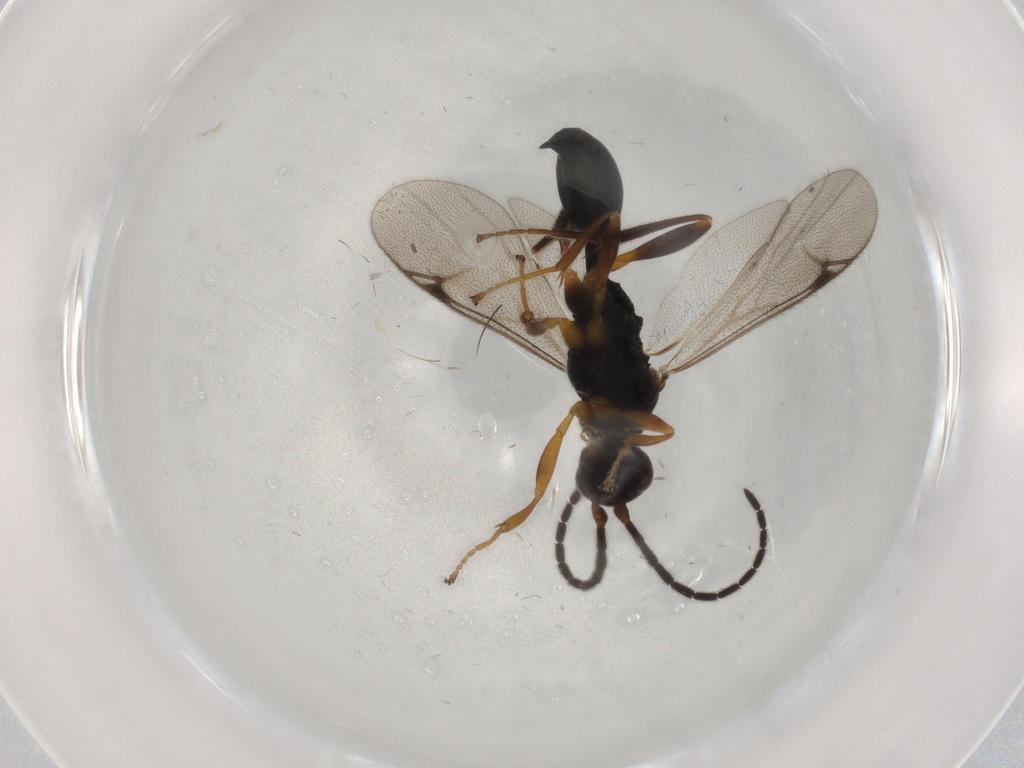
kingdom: Animalia
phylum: Arthropoda
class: Insecta
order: Hymenoptera
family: Proctotrupidae
